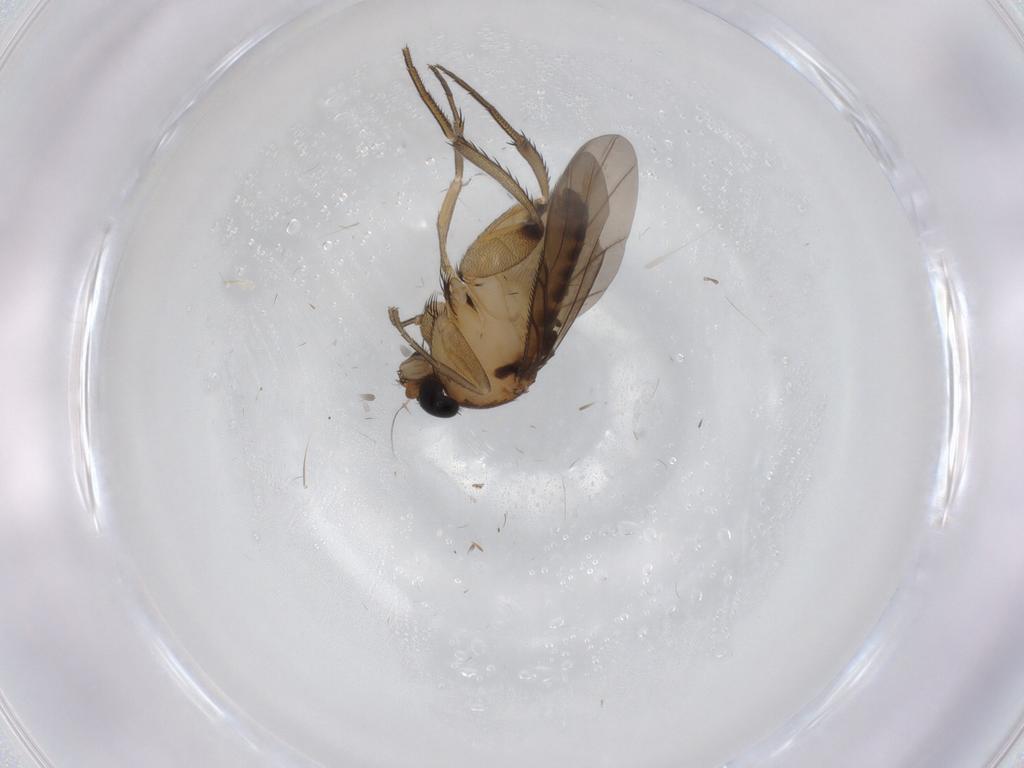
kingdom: Animalia
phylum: Arthropoda
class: Insecta
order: Diptera
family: Phoridae
